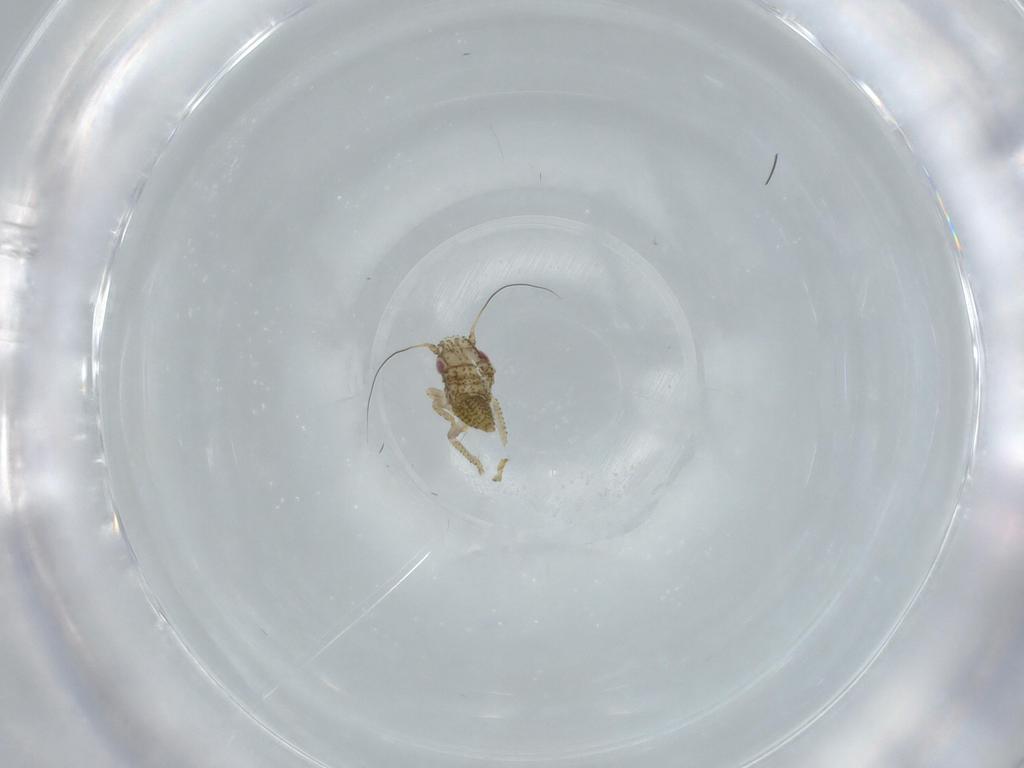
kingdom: Animalia
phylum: Arthropoda
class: Insecta
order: Hemiptera
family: Cicadellidae
